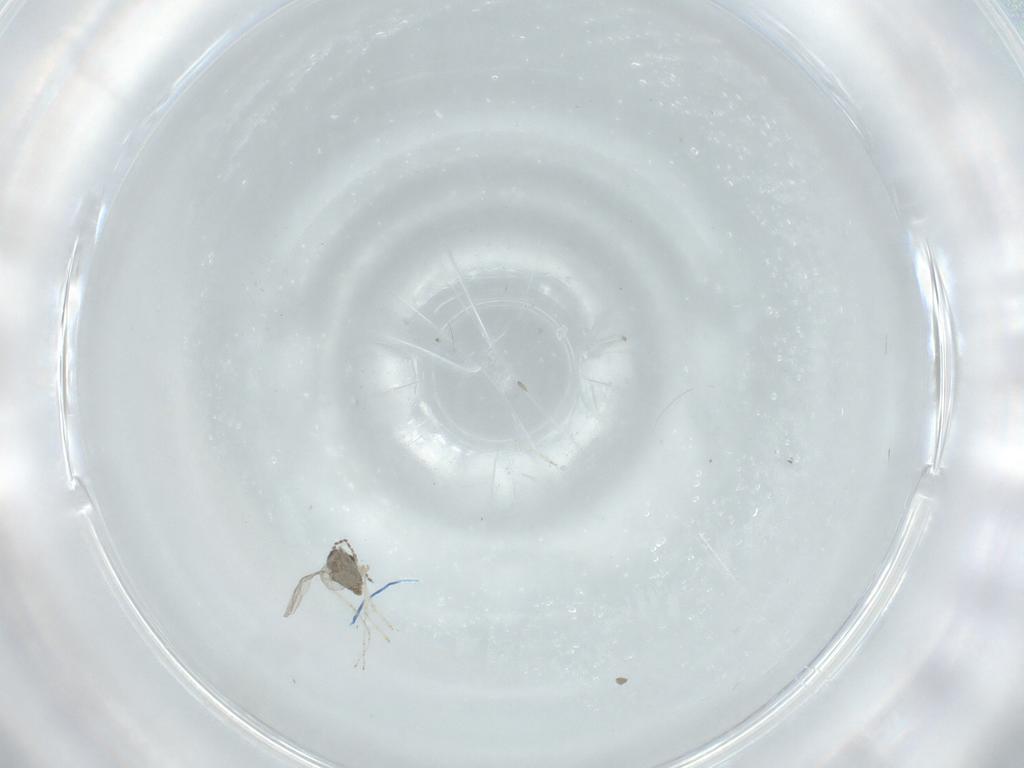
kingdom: Animalia
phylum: Arthropoda
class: Insecta
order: Diptera
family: Cecidomyiidae
